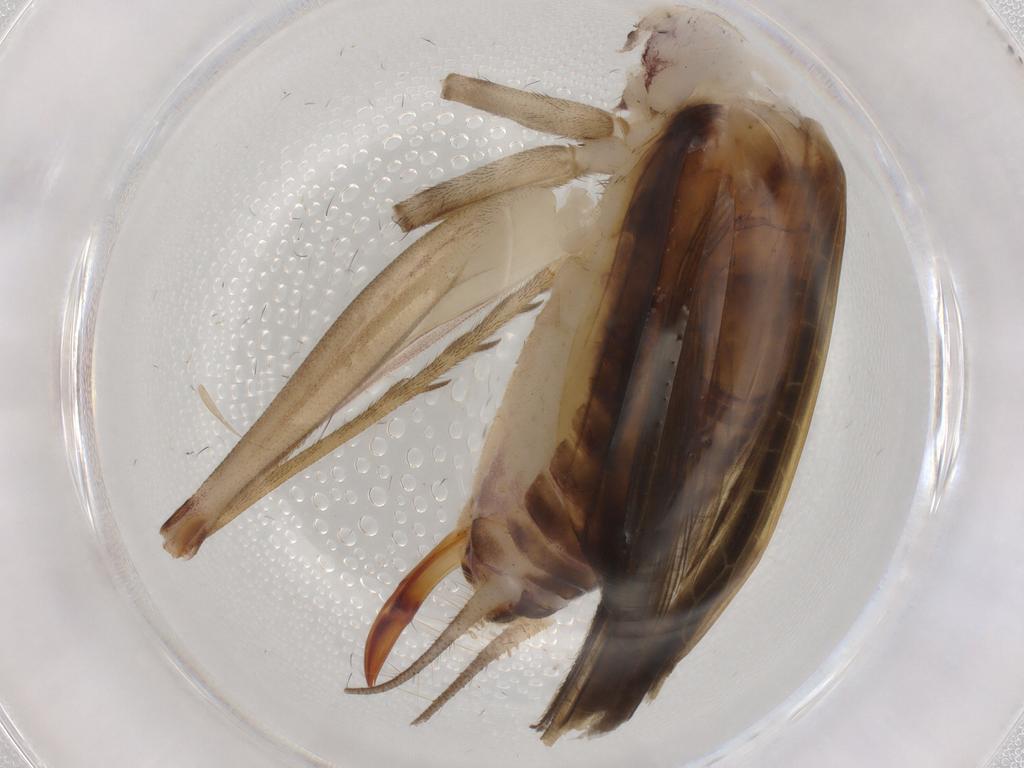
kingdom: Animalia
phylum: Arthropoda
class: Insecta
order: Orthoptera
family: Trigonidiidae
